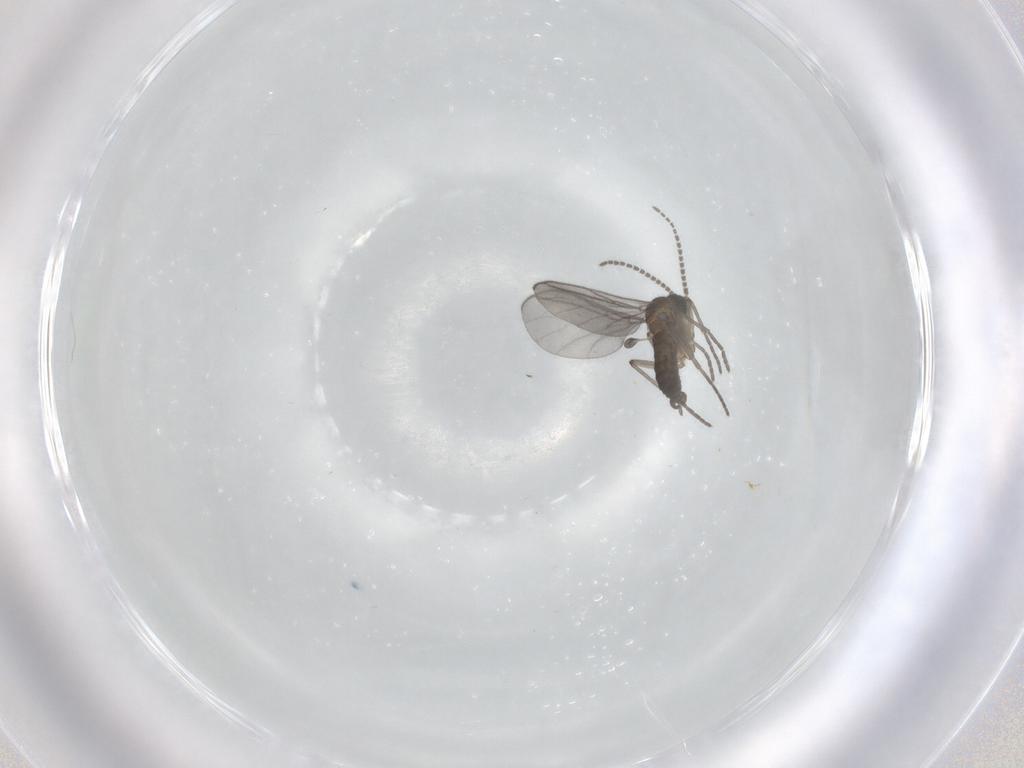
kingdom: Animalia
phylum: Arthropoda
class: Insecta
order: Diptera
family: Sciaridae
